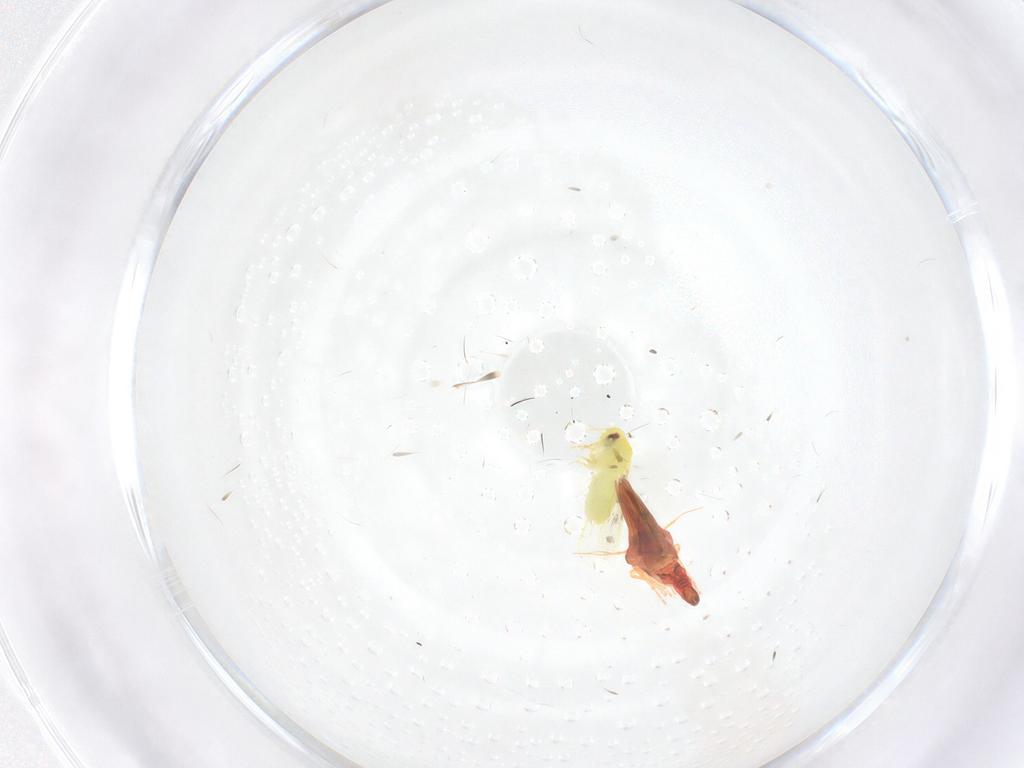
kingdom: Animalia
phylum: Arthropoda
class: Insecta
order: Hemiptera
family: Aleyrodidae
